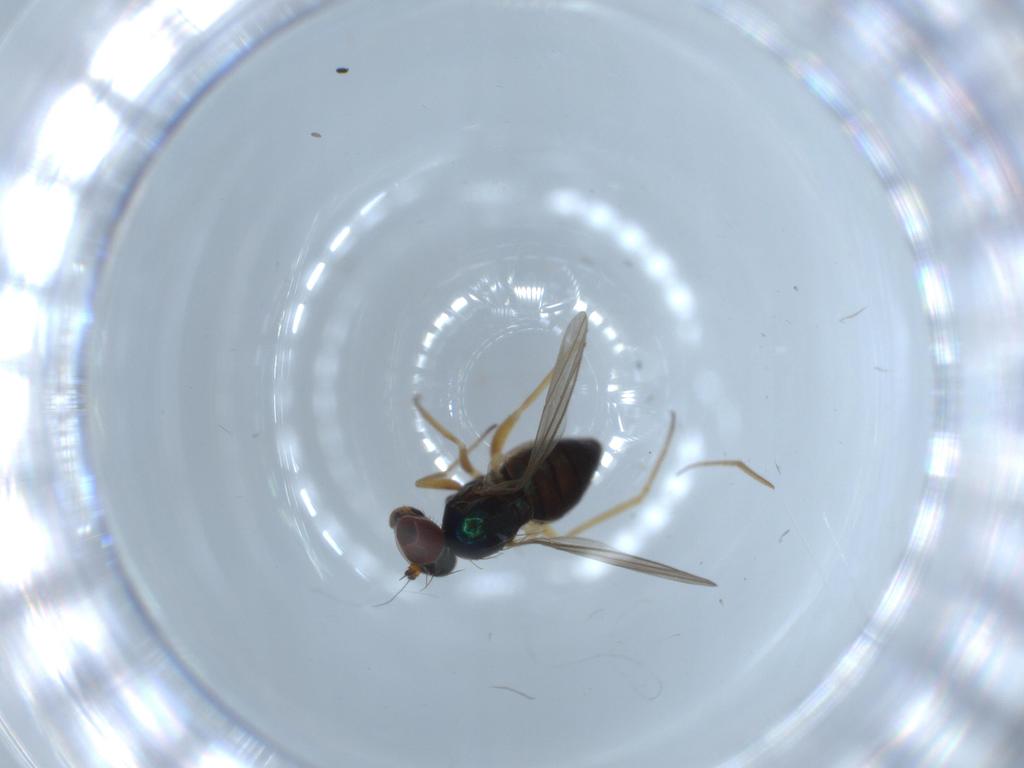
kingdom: Animalia
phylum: Arthropoda
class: Insecta
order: Diptera
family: Dolichopodidae
